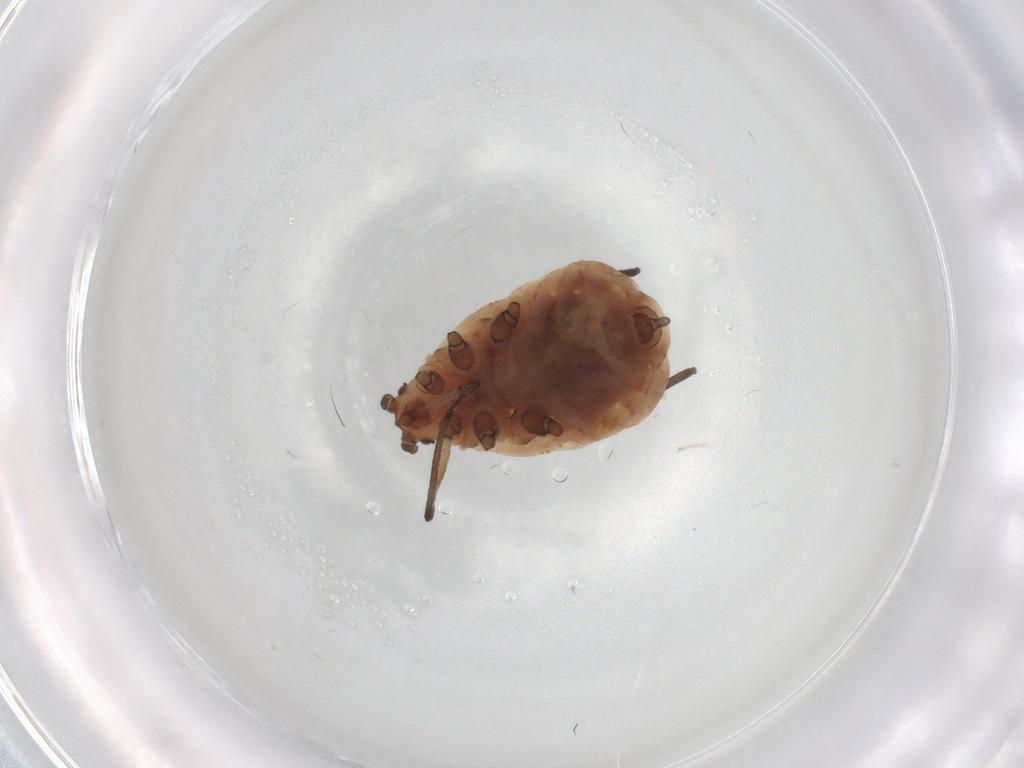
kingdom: Animalia
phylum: Arthropoda
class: Insecta
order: Hemiptera
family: Aphididae
